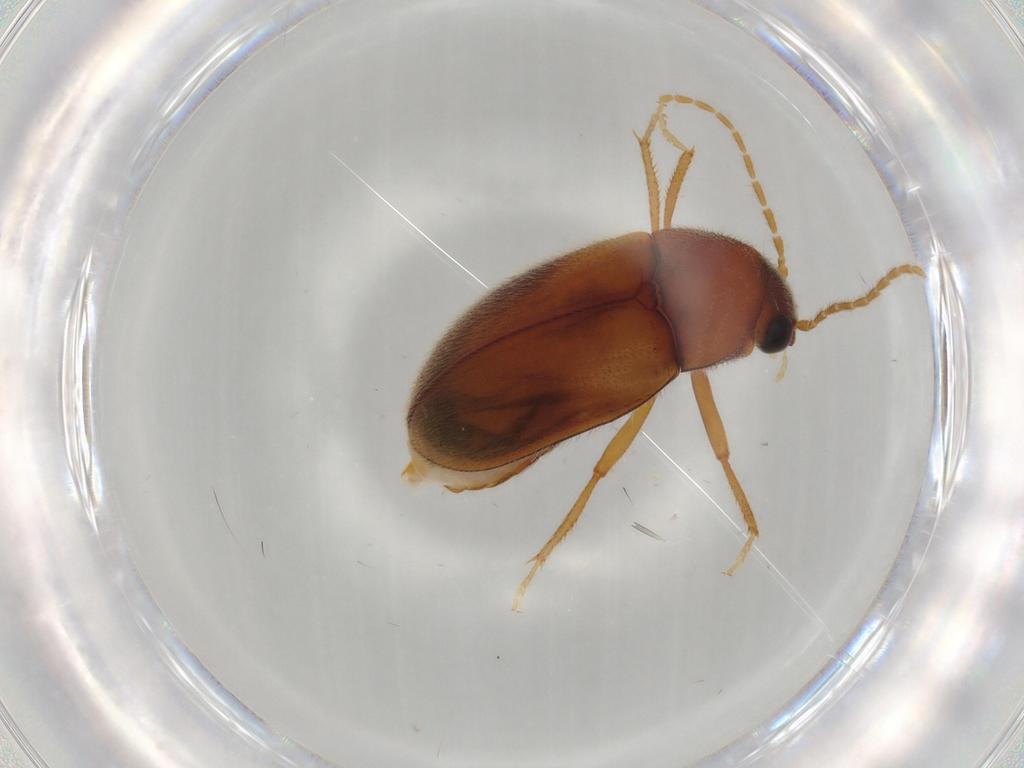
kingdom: Animalia
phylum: Arthropoda
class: Insecta
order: Coleoptera
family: Ptilodactylidae
